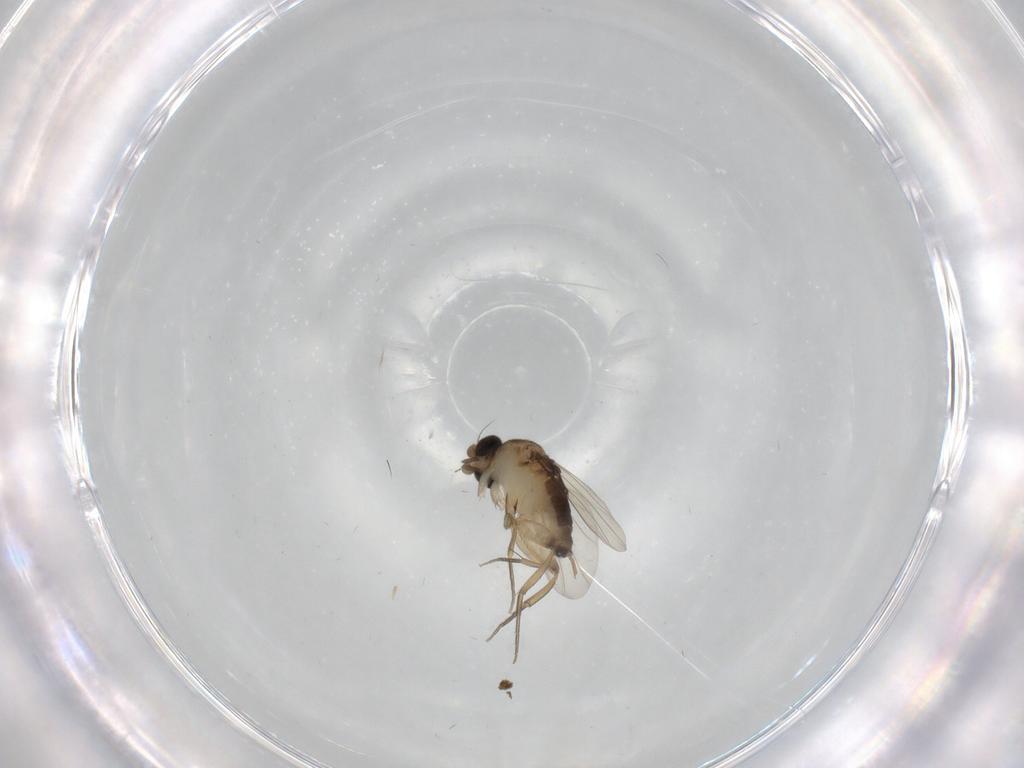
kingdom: Animalia
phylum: Arthropoda
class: Insecta
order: Diptera
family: Phoridae
